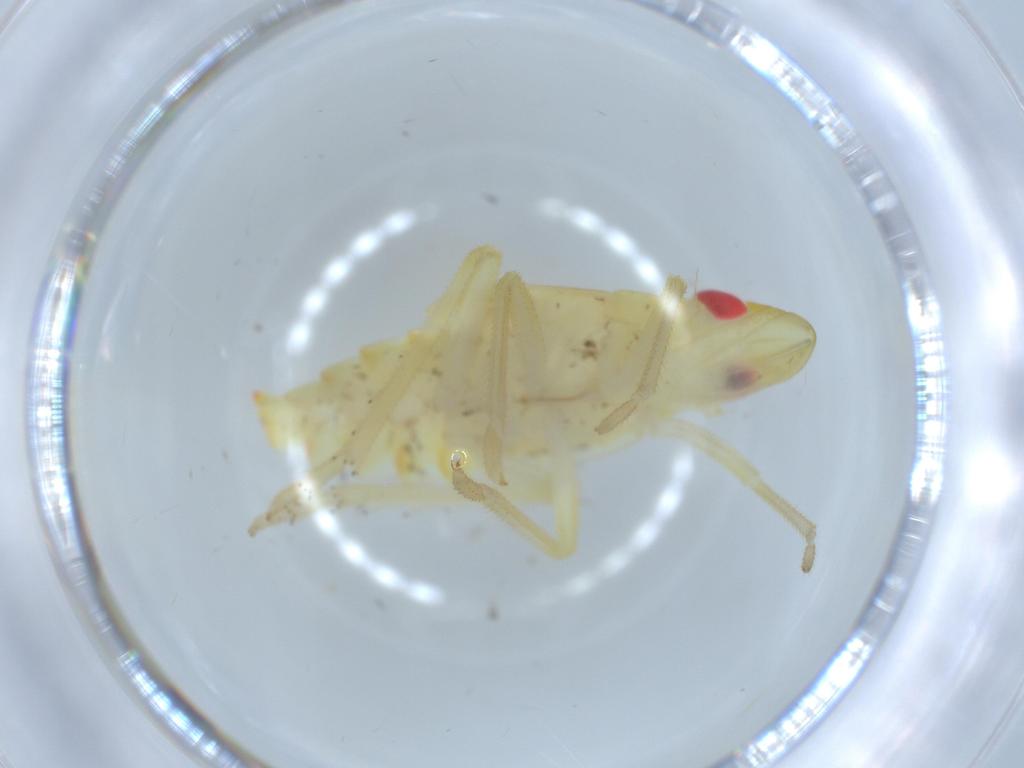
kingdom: Animalia
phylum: Arthropoda
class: Insecta
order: Hemiptera
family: Tropiduchidae
